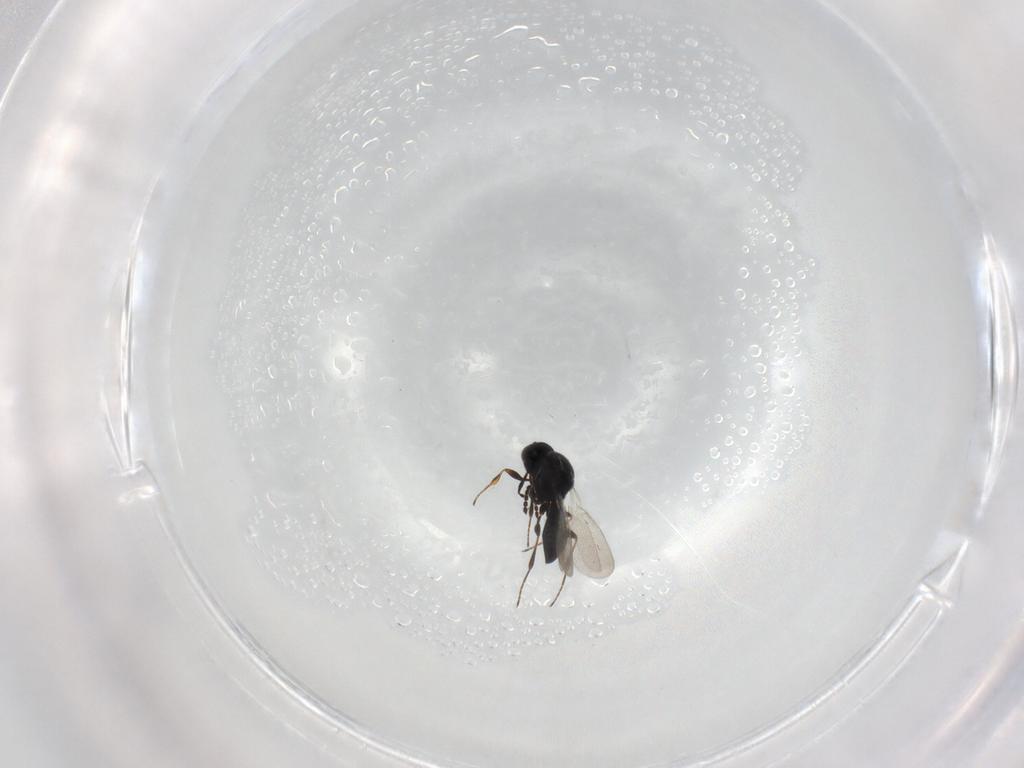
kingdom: Animalia
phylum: Arthropoda
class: Insecta
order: Hymenoptera
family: Platygastridae
